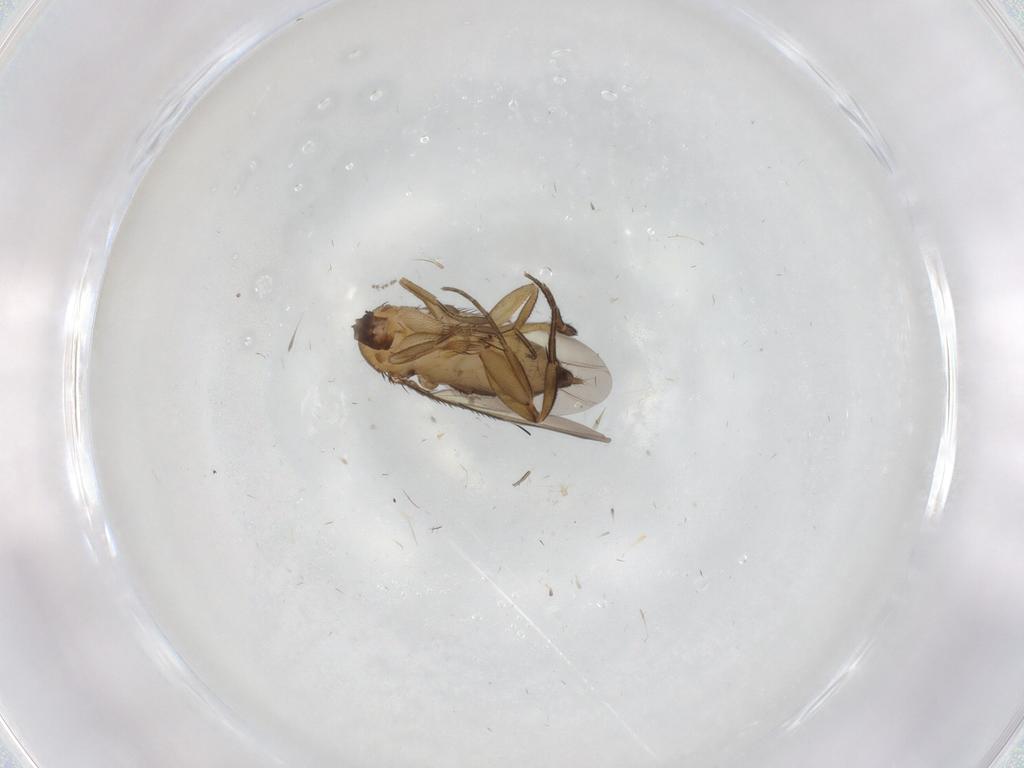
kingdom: Animalia
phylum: Arthropoda
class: Insecta
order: Diptera
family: Phoridae
